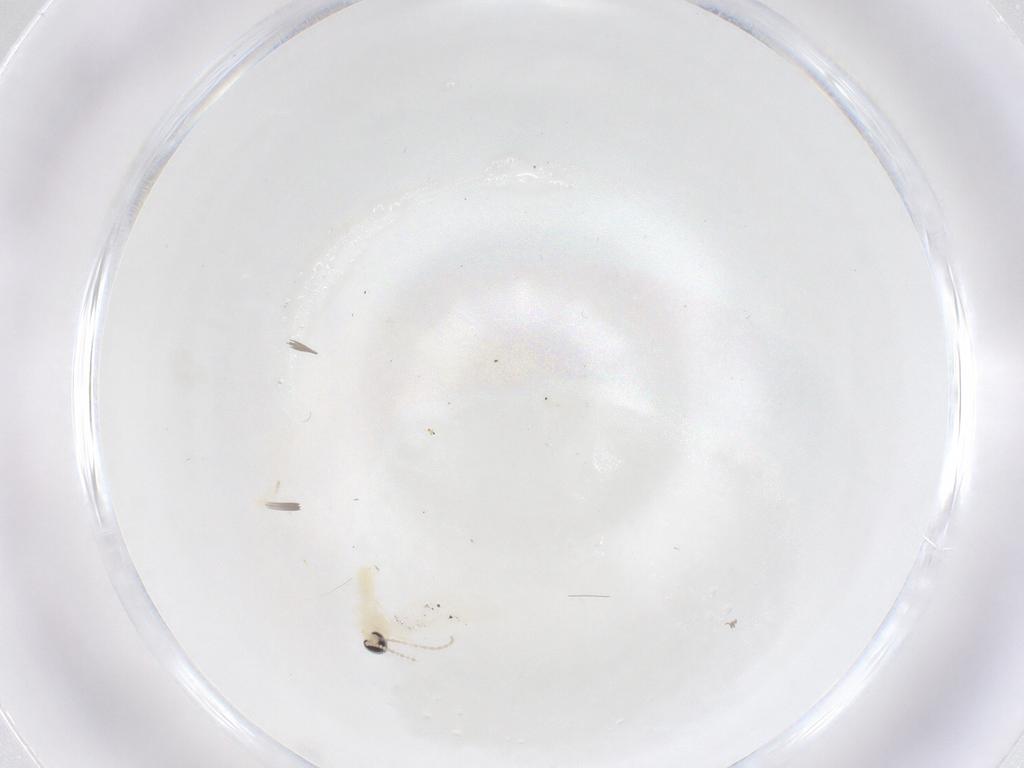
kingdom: Animalia
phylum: Arthropoda
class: Insecta
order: Diptera
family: Cecidomyiidae
